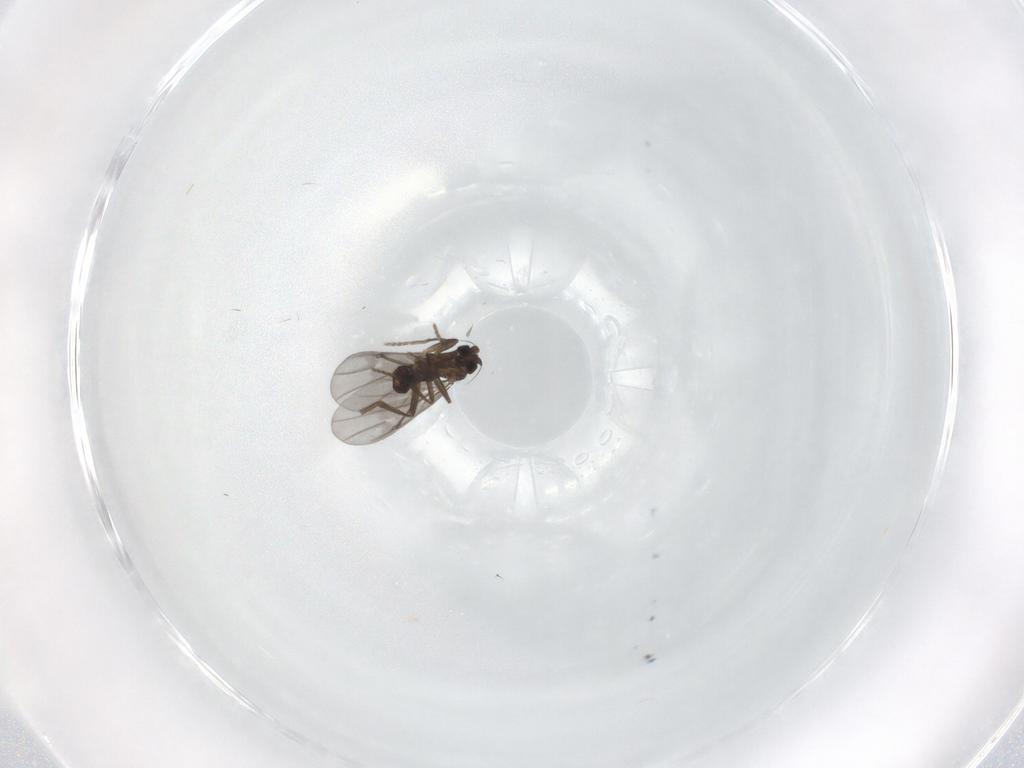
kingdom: Animalia
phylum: Arthropoda
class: Insecta
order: Diptera
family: Phoridae
